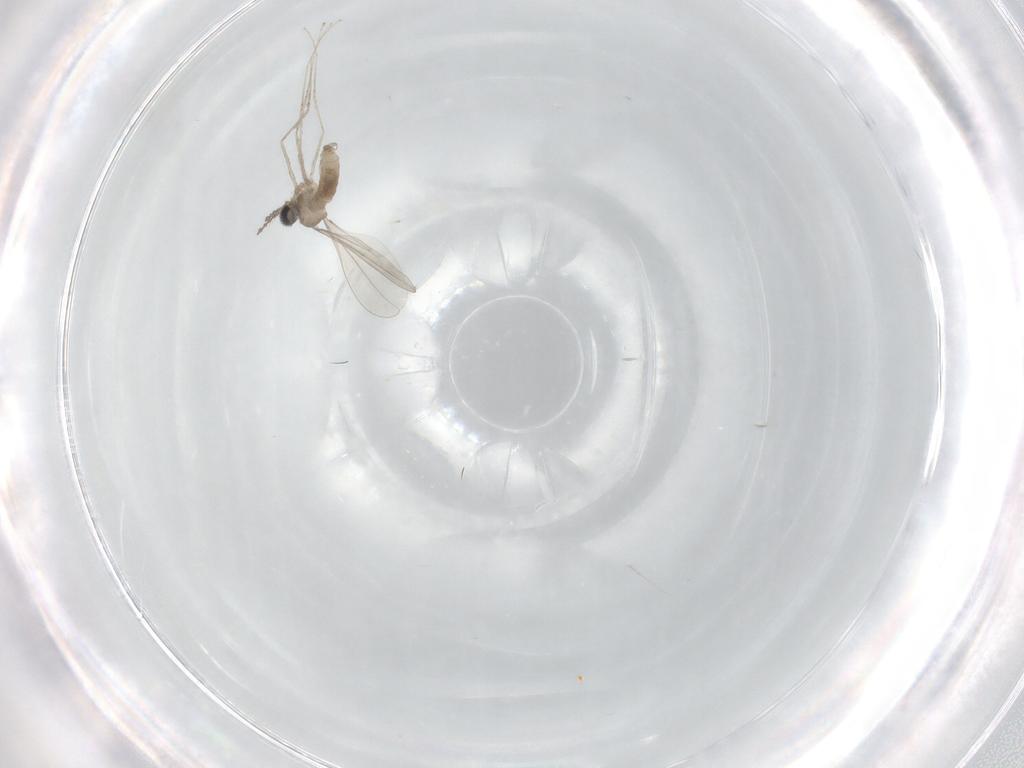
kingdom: Animalia
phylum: Arthropoda
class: Insecta
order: Diptera
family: Cecidomyiidae
